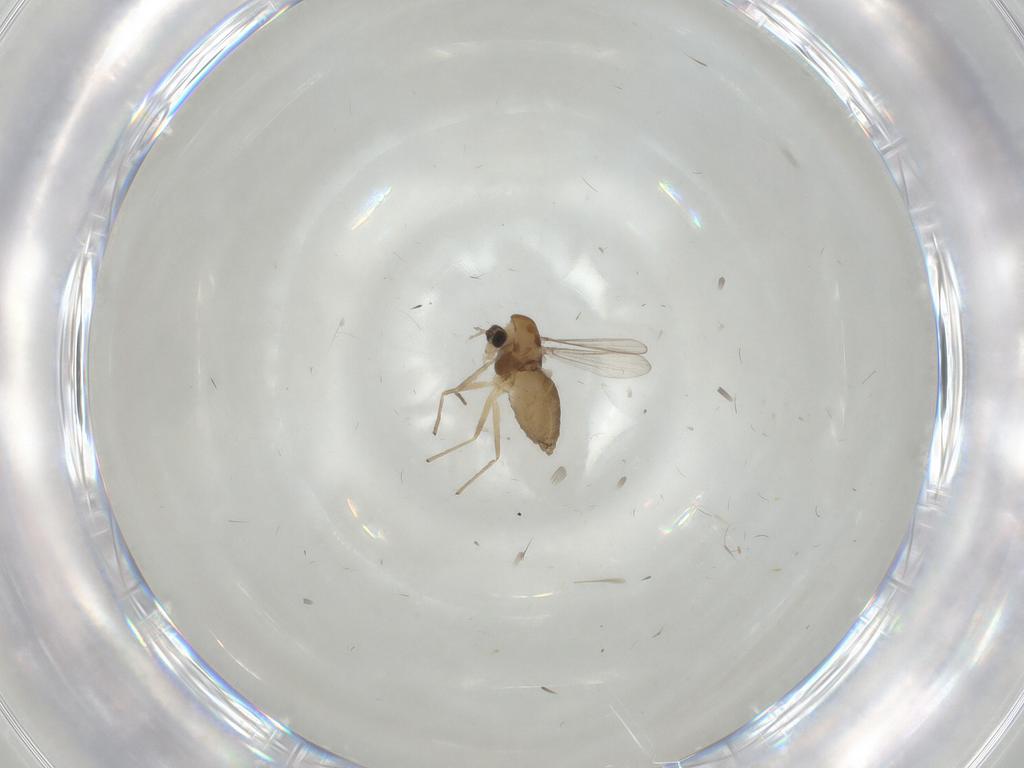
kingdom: Animalia
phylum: Arthropoda
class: Insecta
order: Diptera
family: Chironomidae
